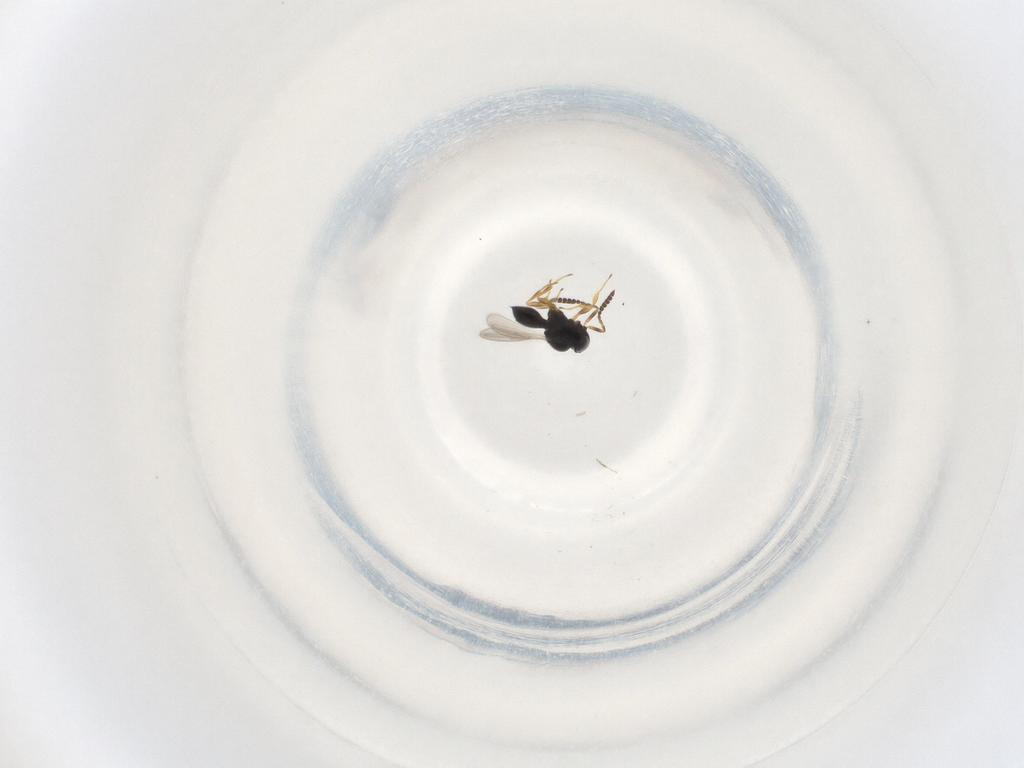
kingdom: Animalia
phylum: Arthropoda
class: Insecta
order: Hymenoptera
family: Scelionidae
